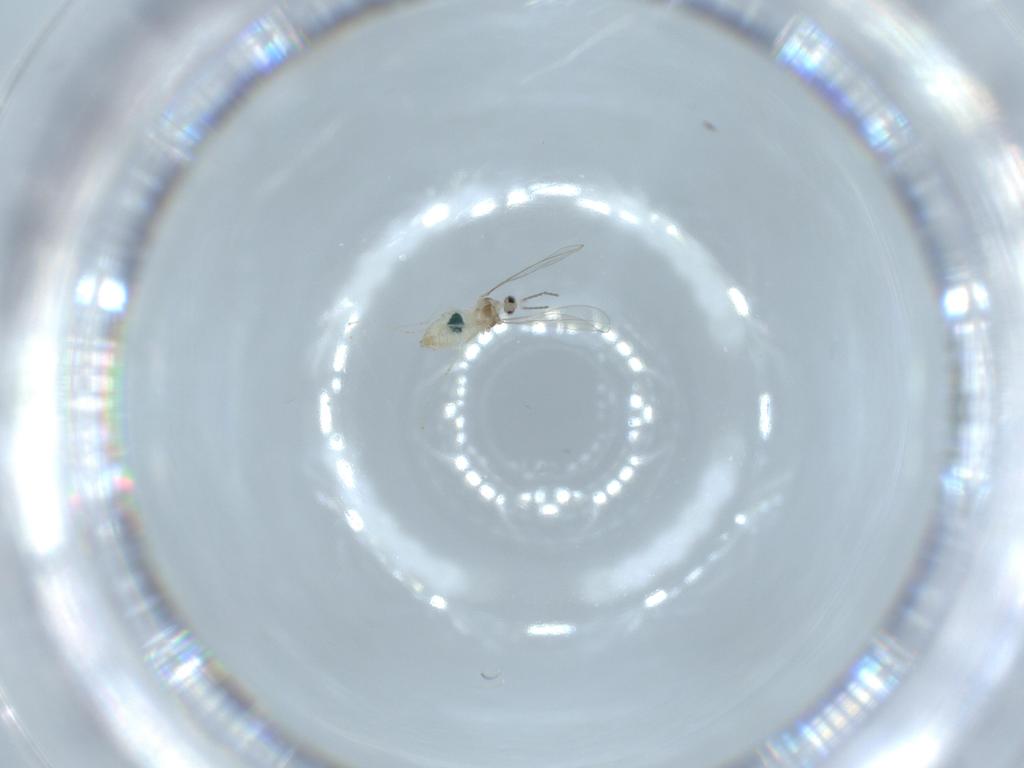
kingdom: Animalia
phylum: Arthropoda
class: Insecta
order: Diptera
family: Cecidomyiidae
